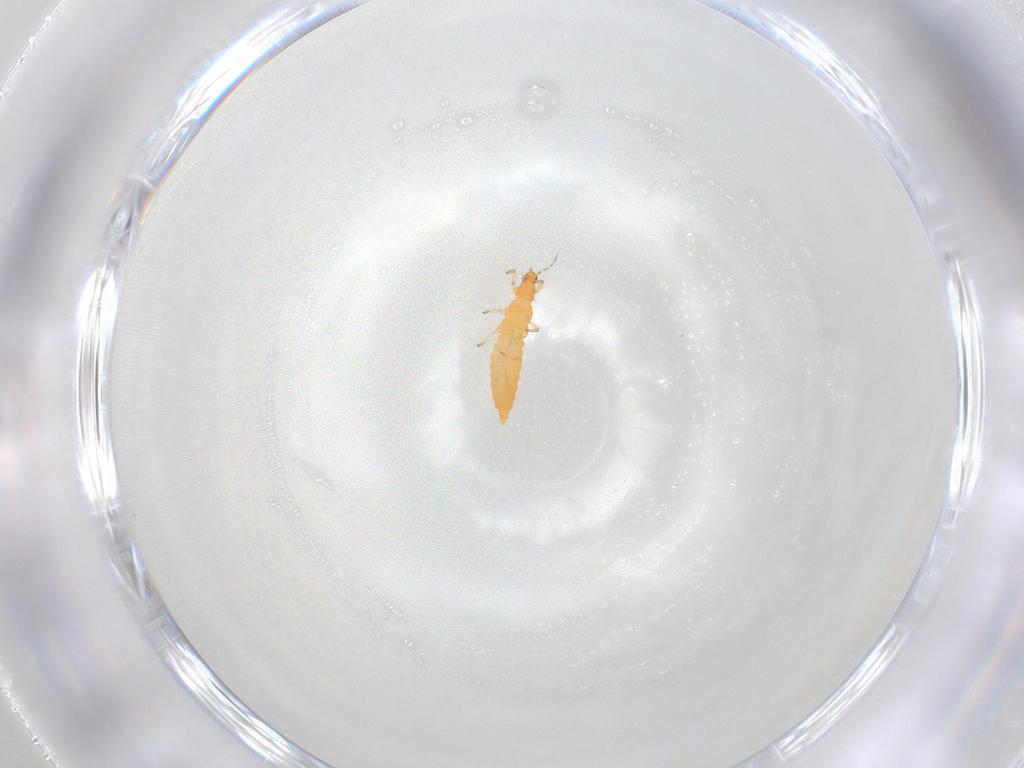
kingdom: Animalia
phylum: Arthropoda
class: Insecta
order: Thysanoptera
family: Aeolothripidae
